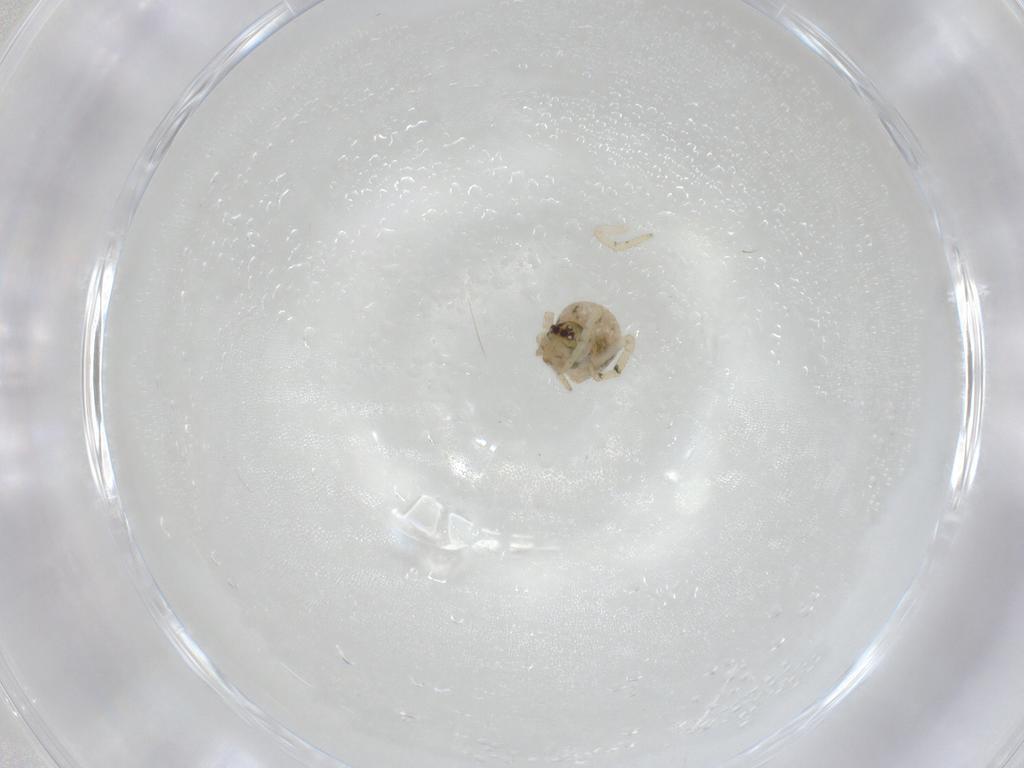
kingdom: Animalia
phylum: Arthropoda
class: Arachnida
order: Araneae
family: Theridiidae
